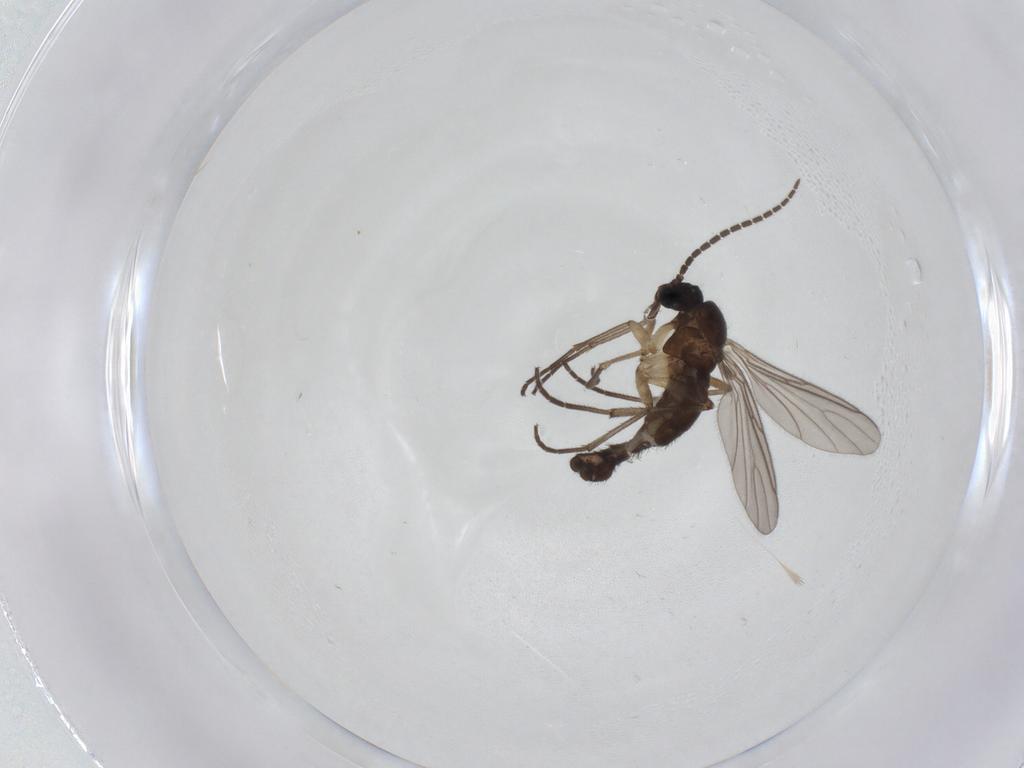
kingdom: Animalia
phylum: Arthropoda
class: Insecta
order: Diptera
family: Sciaridae
